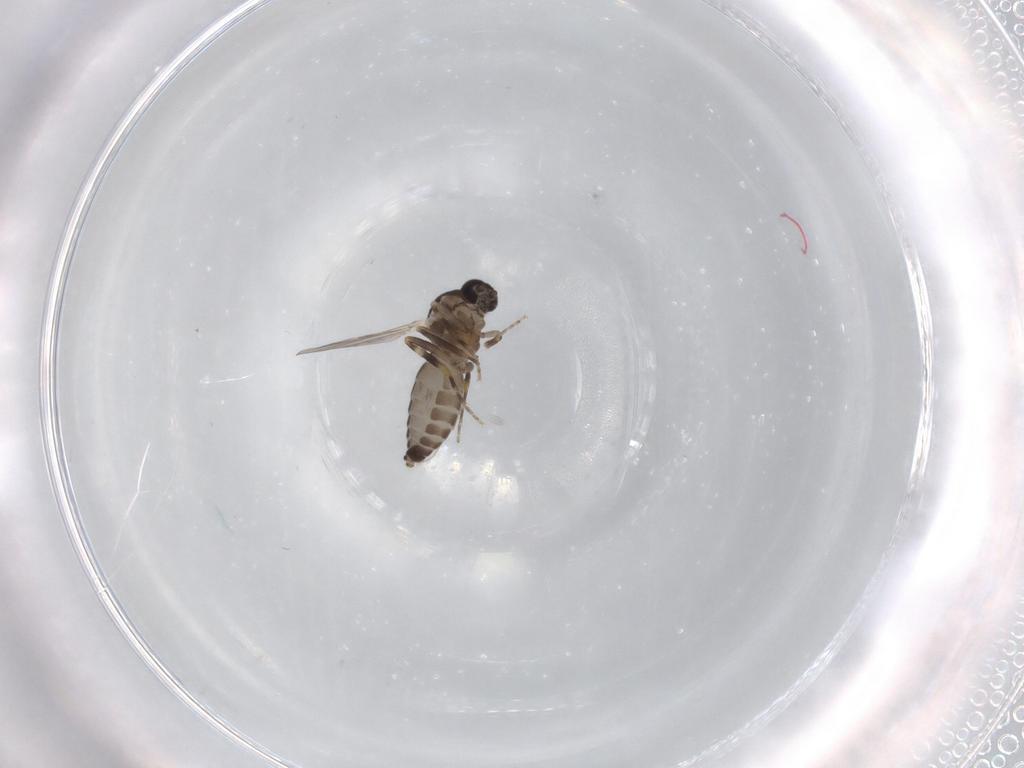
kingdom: Animalia
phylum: Arthropoda
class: Insecta
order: Diptera
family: Ceratopogonidae
